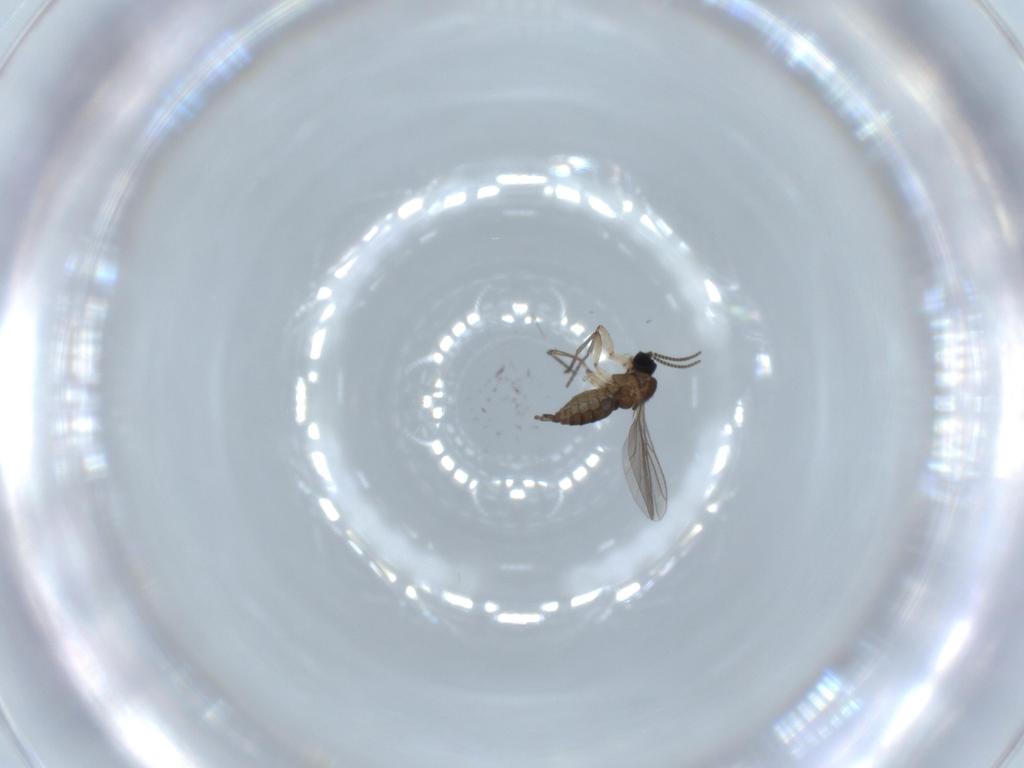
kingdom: Animalia
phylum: Arthropoda
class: Insecta
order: Diptera
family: Sciaridae
